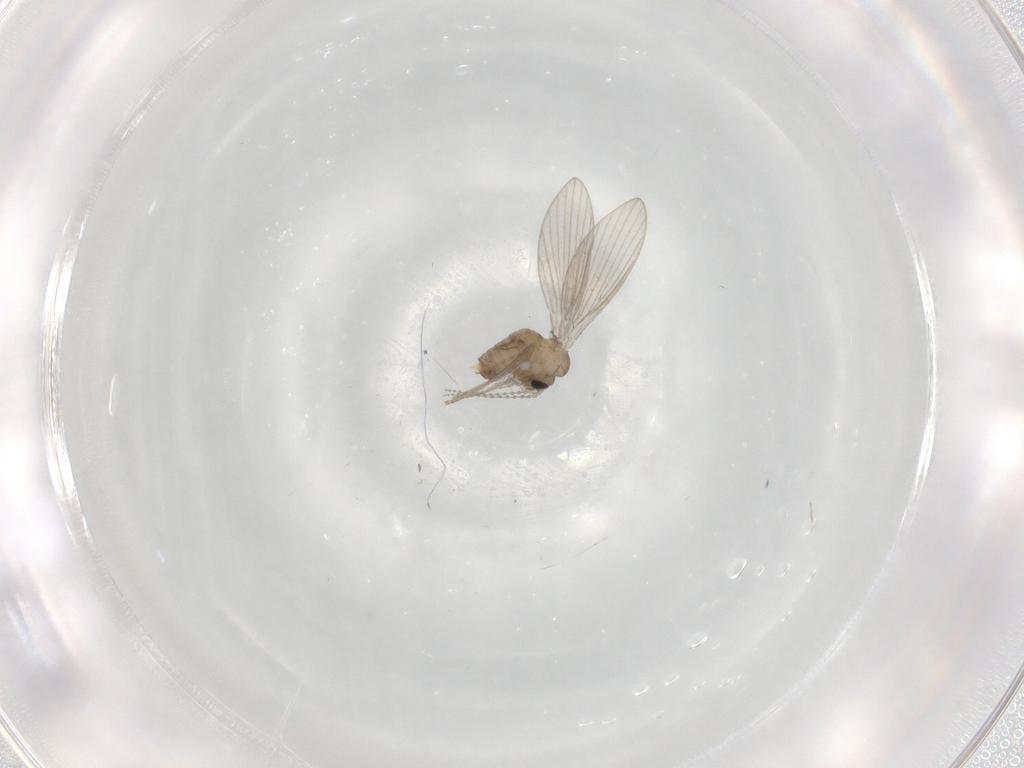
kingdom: Animalia
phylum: Arthropoda
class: Insecta
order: Diptera
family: Psychodidae
